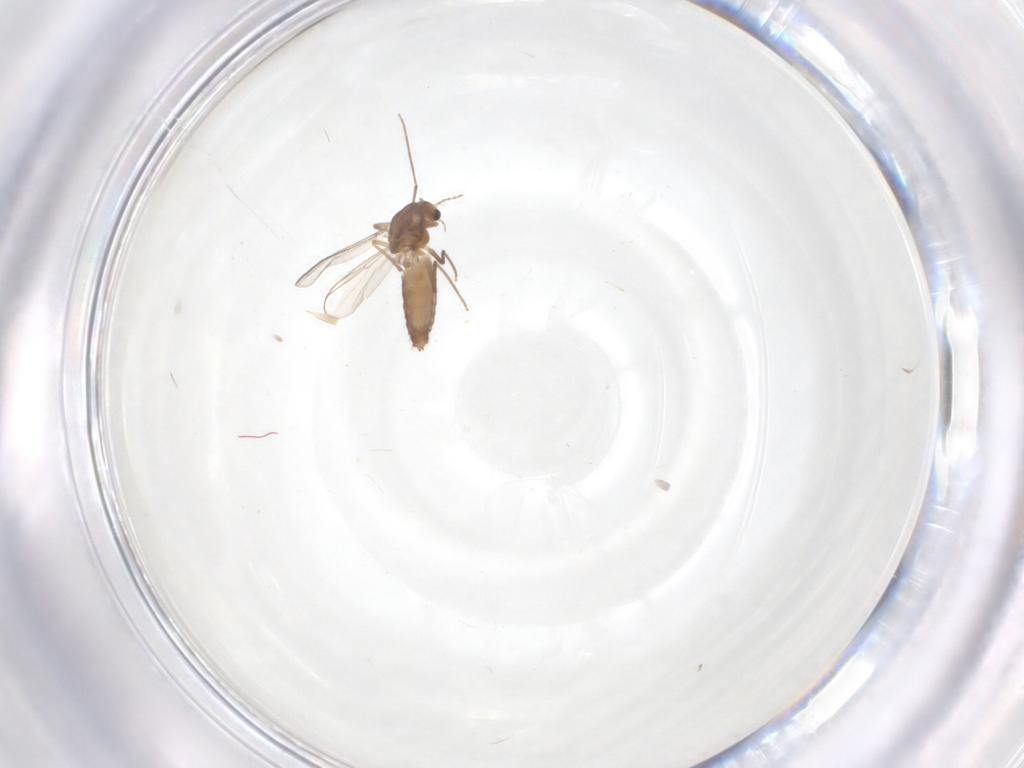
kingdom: Animalia
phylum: Arthropoda
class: Insecta
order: Diptera
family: Chironomidae
